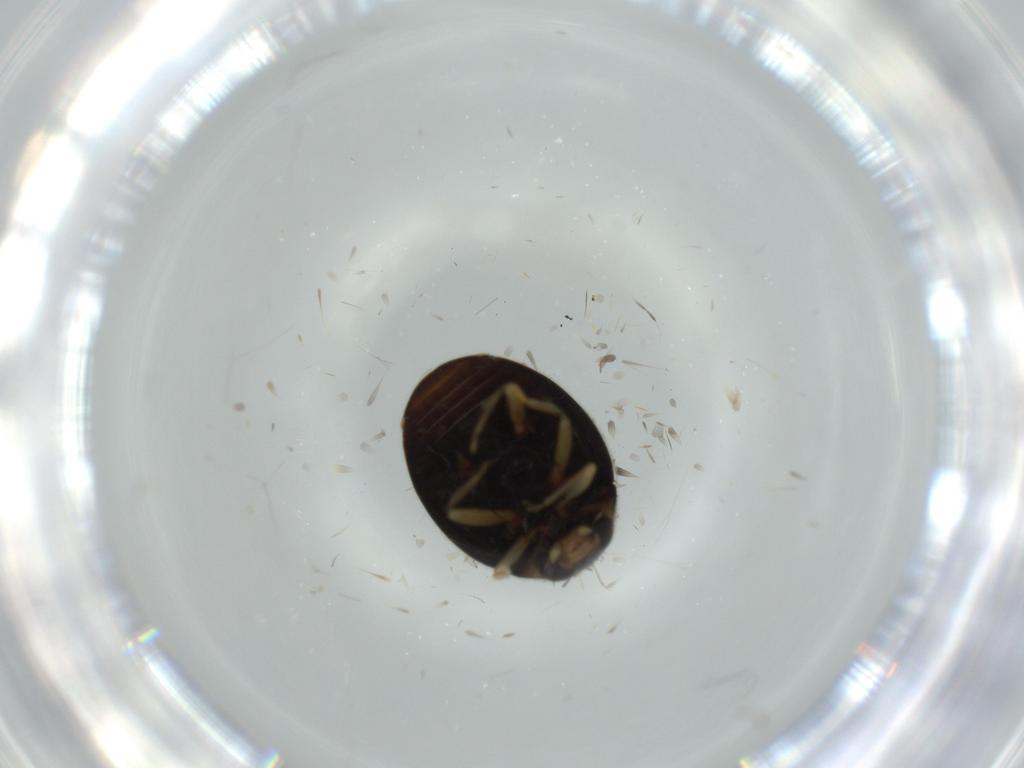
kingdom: Animalia
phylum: Arthropoda
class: Insecta
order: Coleoptera
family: Coccinellidae
